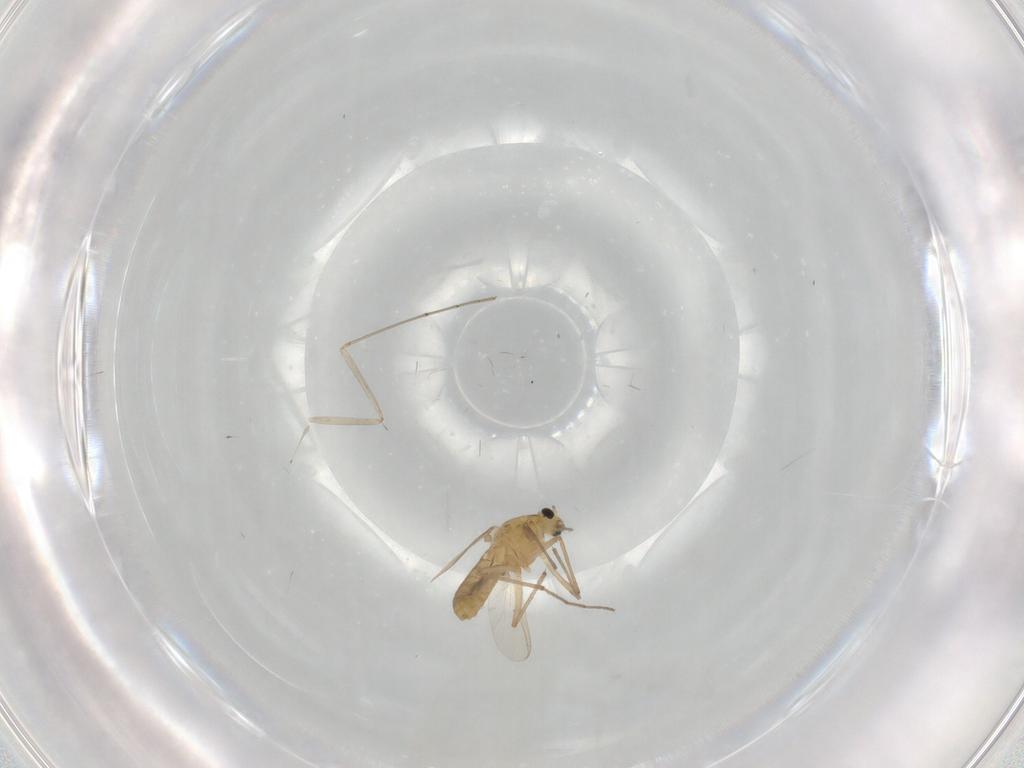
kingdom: Animalia
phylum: Arthropoda
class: Insecta
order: Diptera
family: Chironomidae
